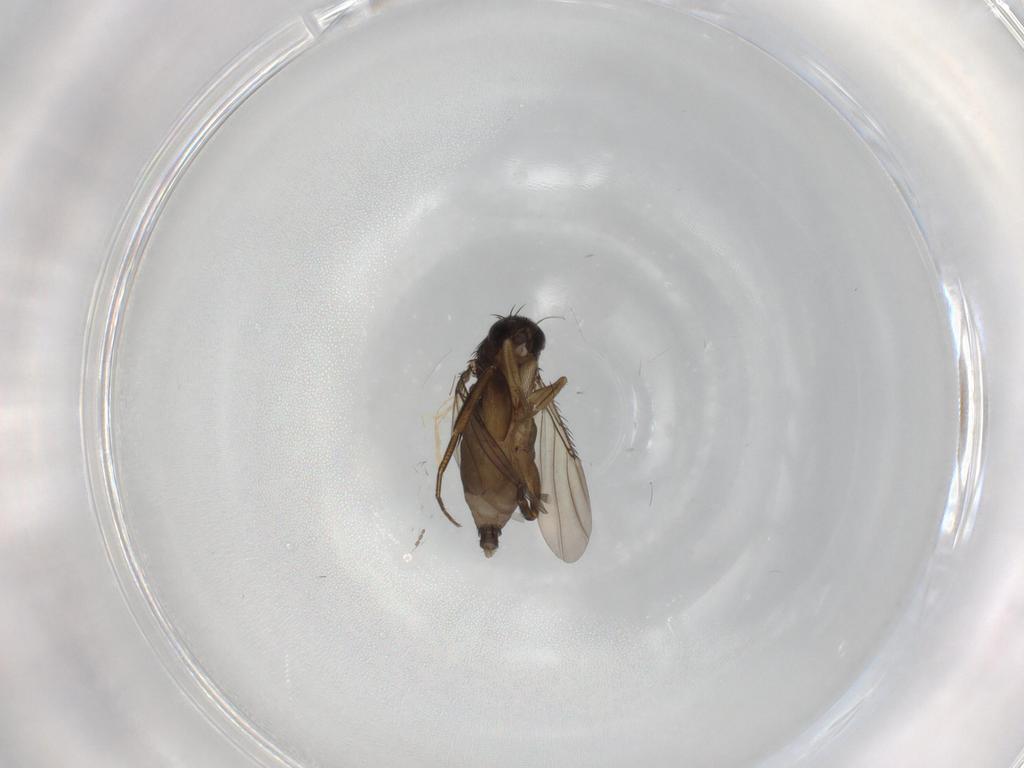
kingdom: Animalia
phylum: Arthropoda
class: Insecta
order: Diptera
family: Phoridae
